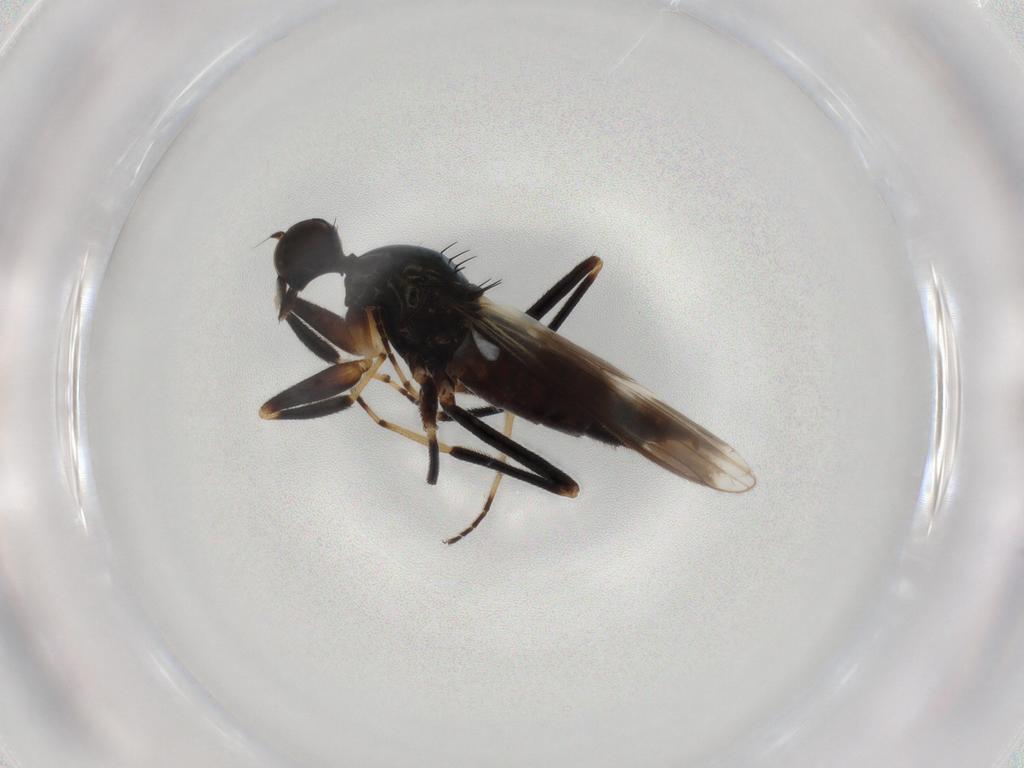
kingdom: Animalia
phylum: Arthropoda
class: Insecta
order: Diptera
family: Hybotidae
